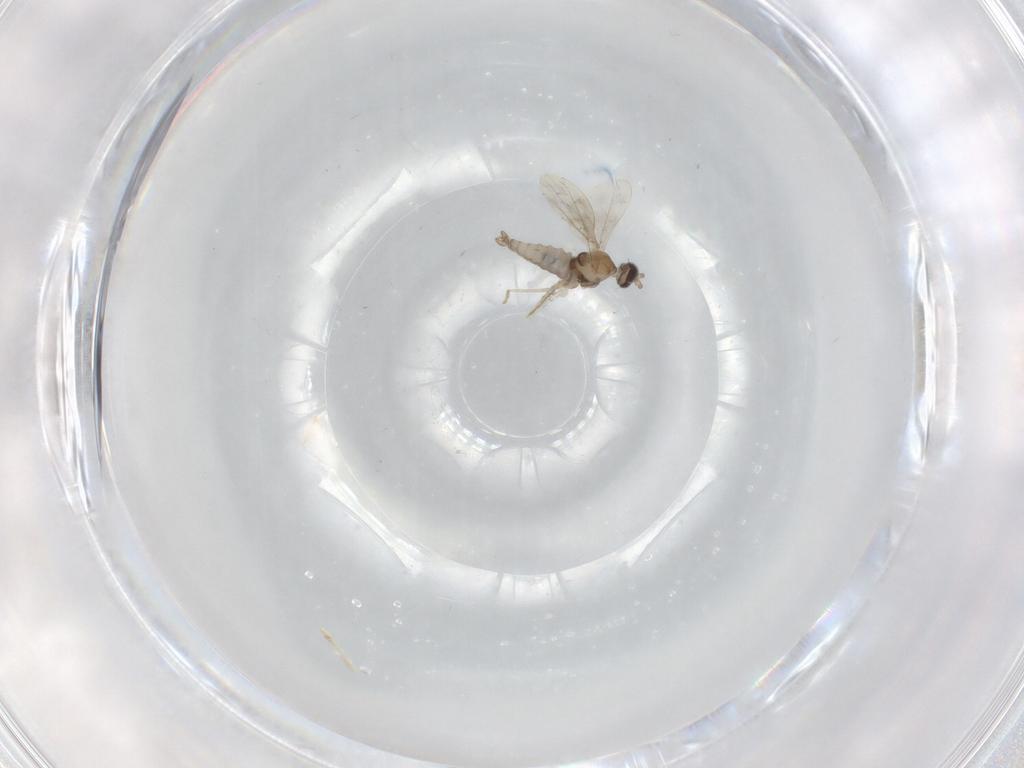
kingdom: Animalia
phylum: Arthropoda
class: Insecta
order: Diptera
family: Cecidomyiidae
